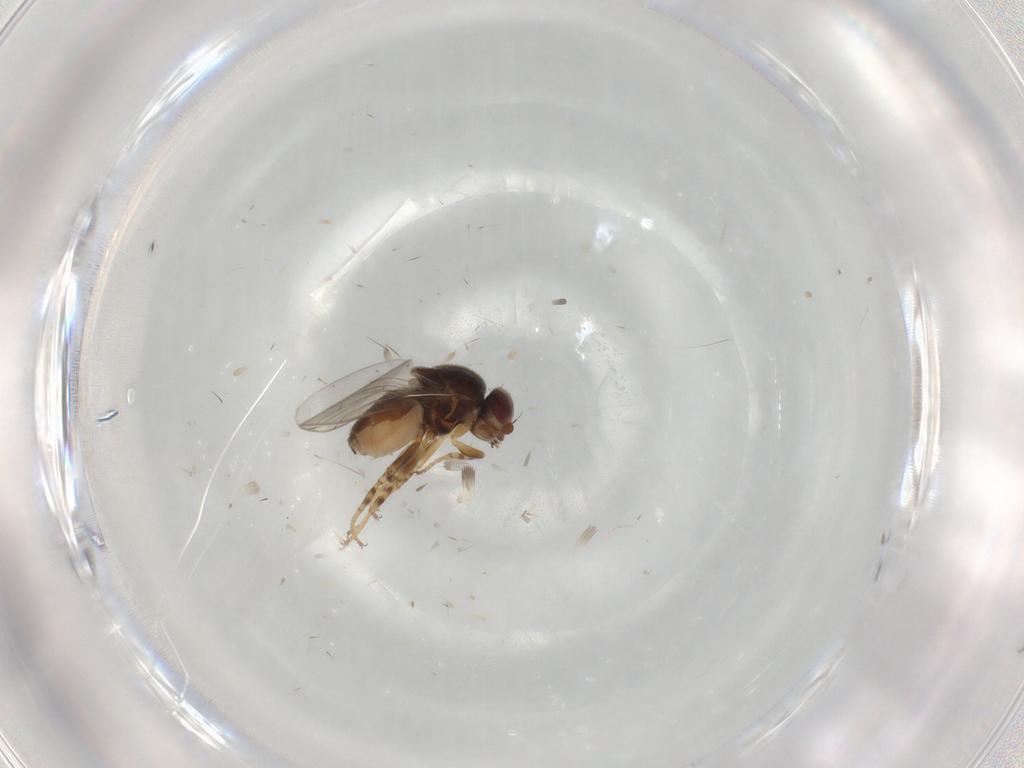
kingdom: Animalia
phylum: Arthropoda
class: Insecta
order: Diptera
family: Chloropidae
